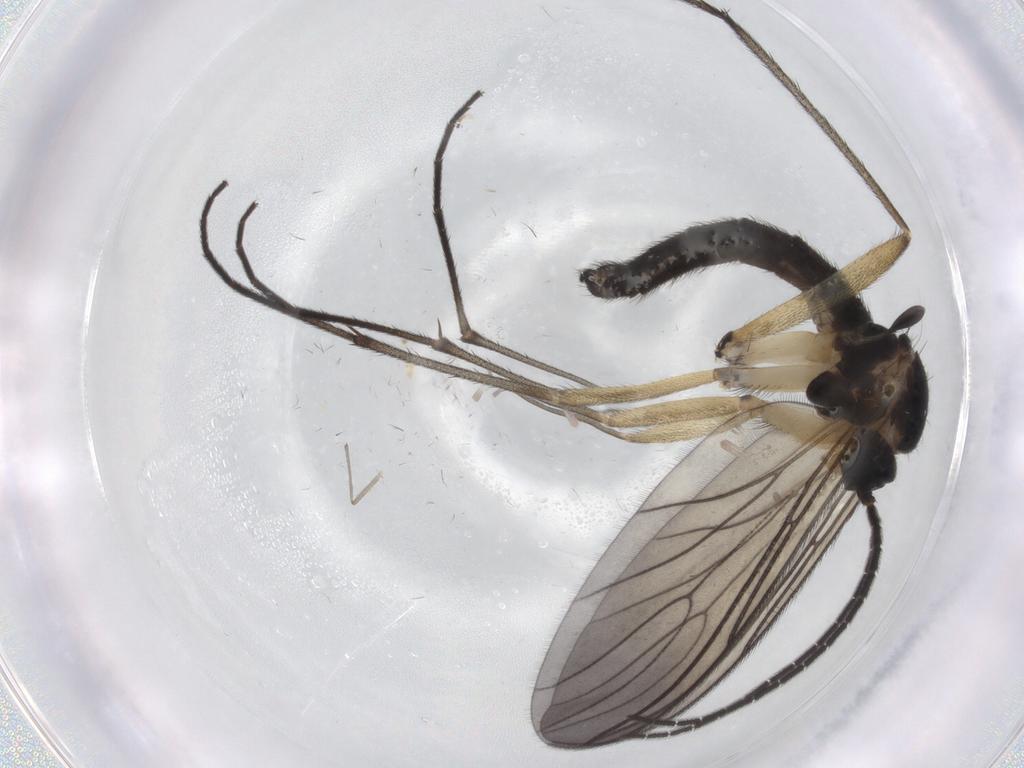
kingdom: Animalia
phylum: Arthropoda
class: Insecta
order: Diptera
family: Sciaridae
